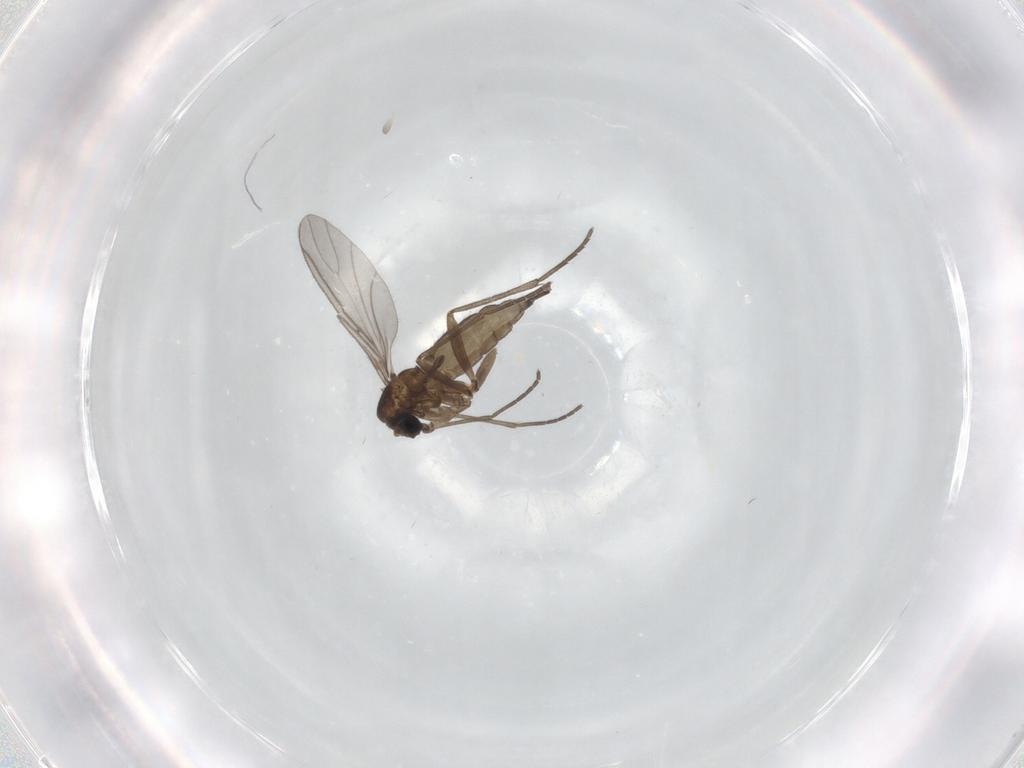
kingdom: Animalia
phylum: Arthropoda
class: Insecta
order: Diptera
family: Sciaridae
